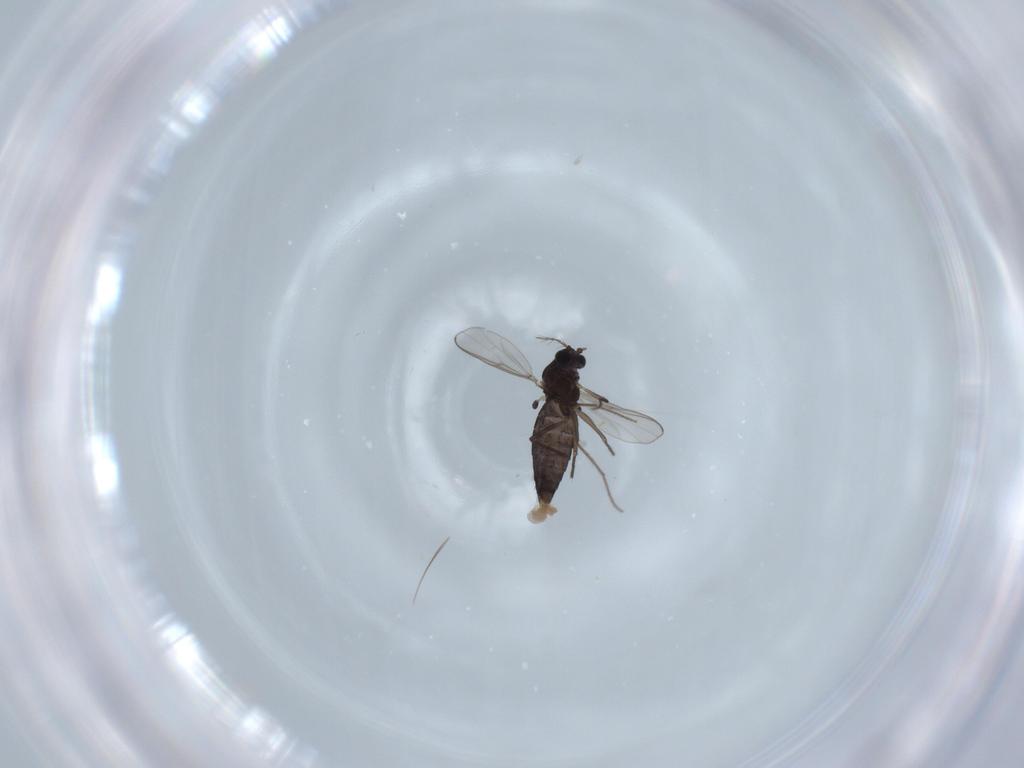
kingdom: Animalia
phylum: Arthropoda
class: Insecta
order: Diptera
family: Chironomidae
